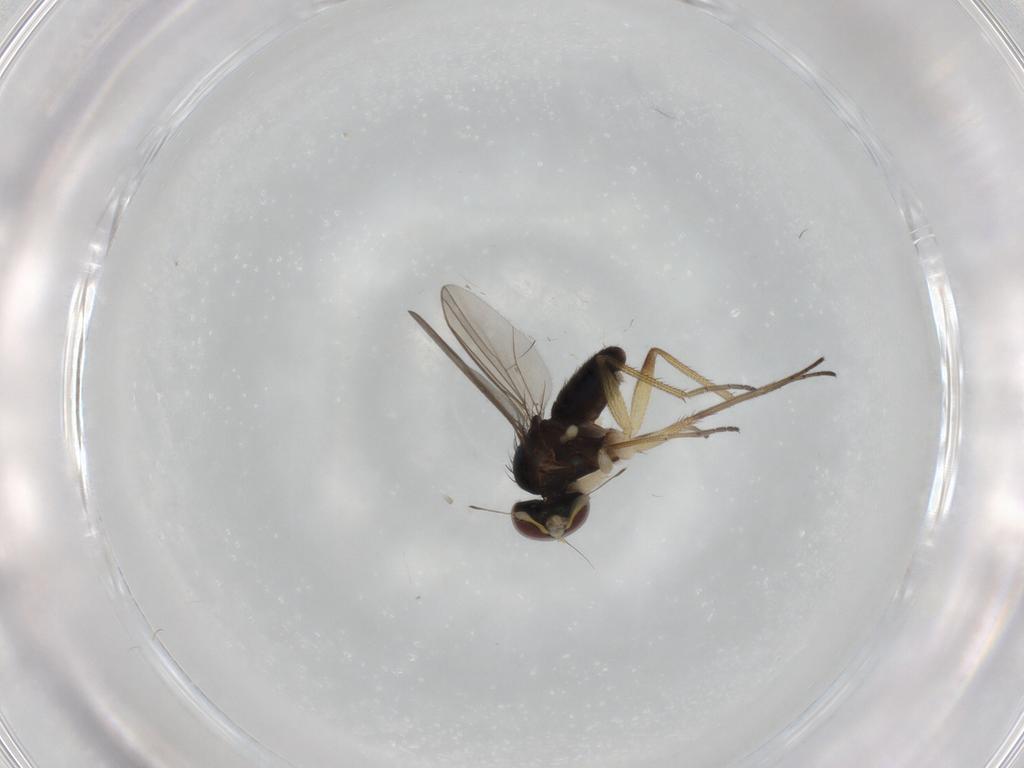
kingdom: Animalia
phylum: Arthropoda
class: Insecta
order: Diptera
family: Dolichopodidae
